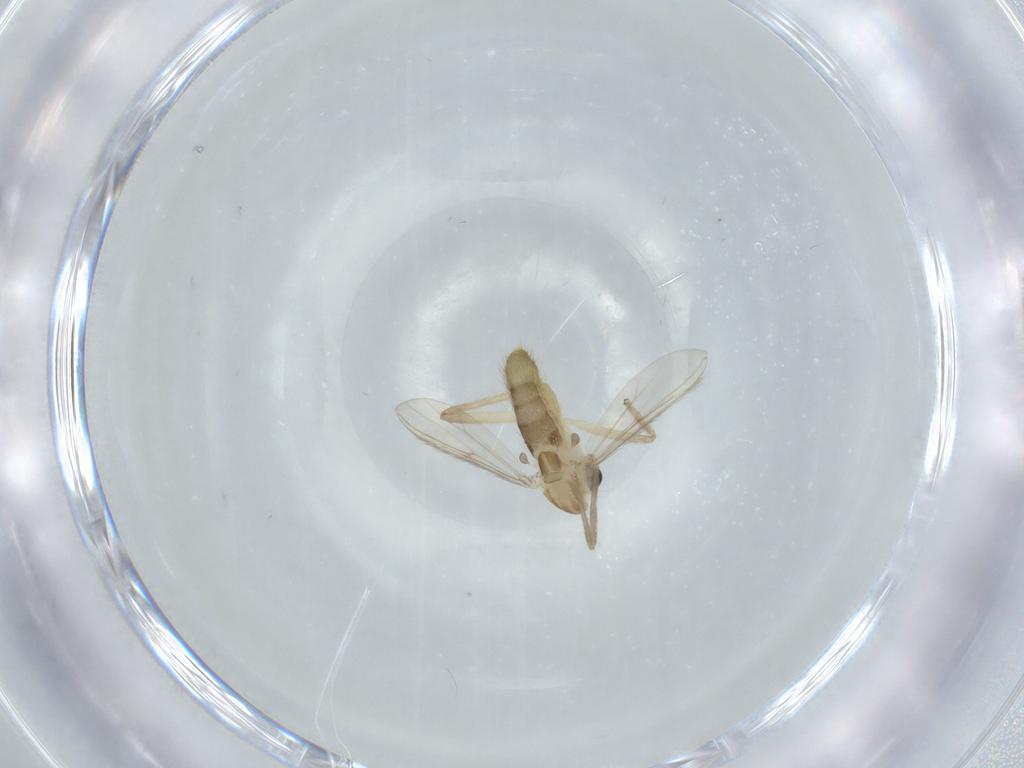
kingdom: Animalia
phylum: Arthropoda
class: Insecta
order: Diptera
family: Chironomidae
